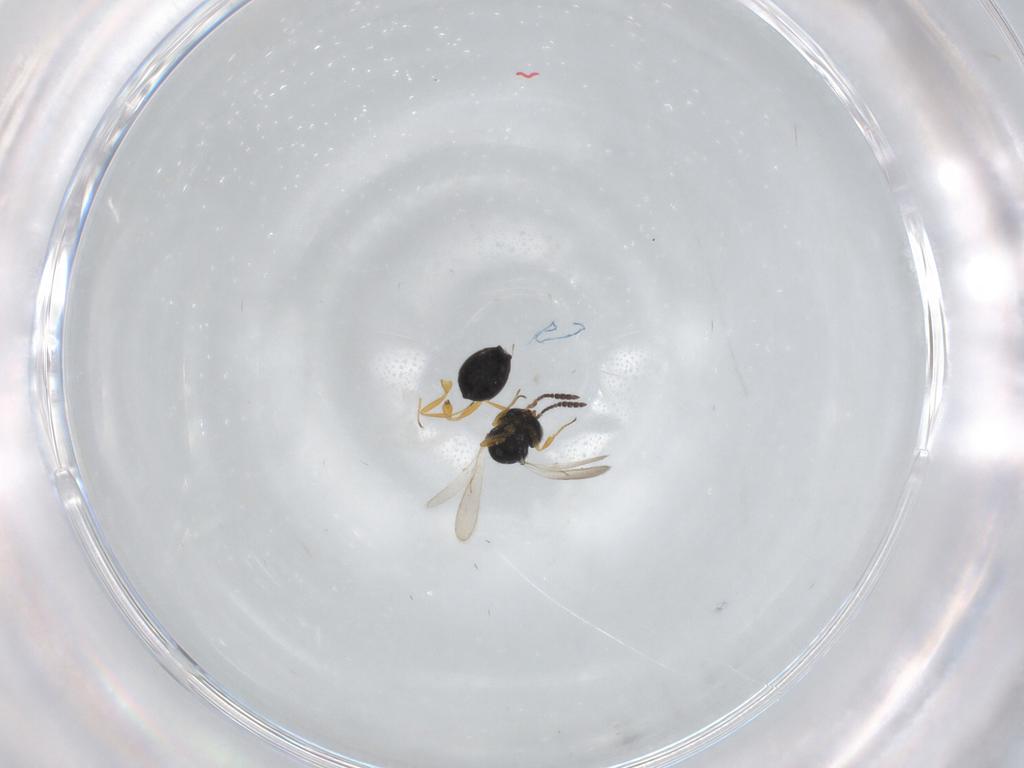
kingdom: Animalia
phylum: Arthropoda
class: Insecta
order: Hymenoptera
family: Scelionidae
